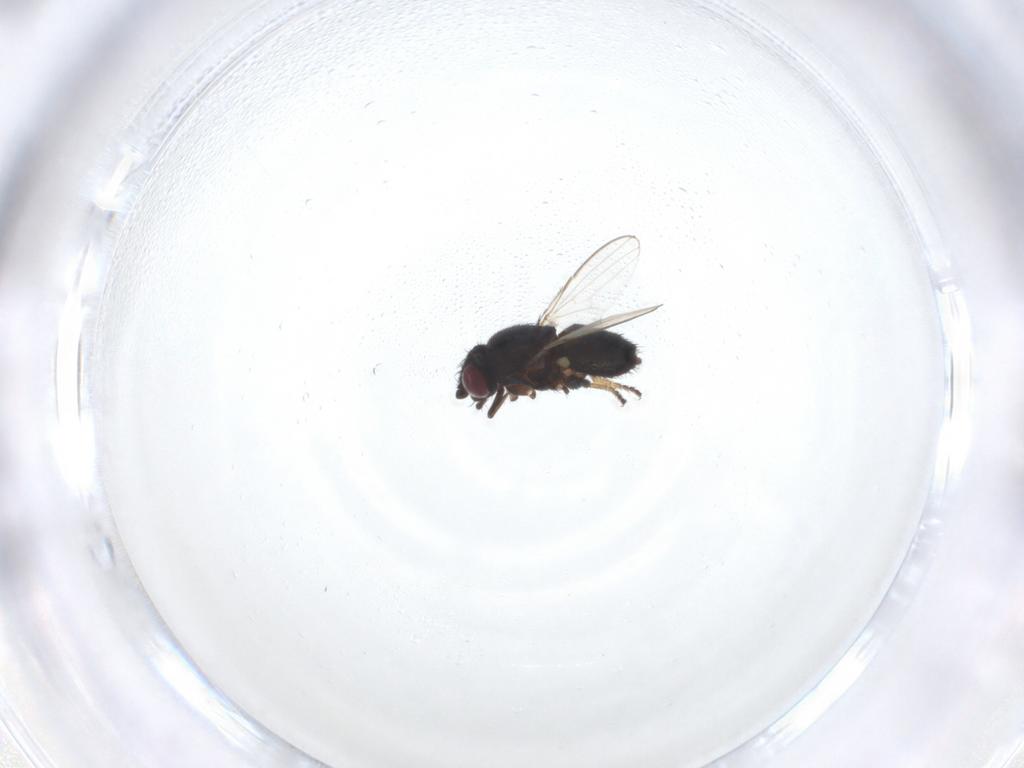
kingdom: Animalia
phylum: Arthropoda
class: Insecta
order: Diptera
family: Milichiidae
